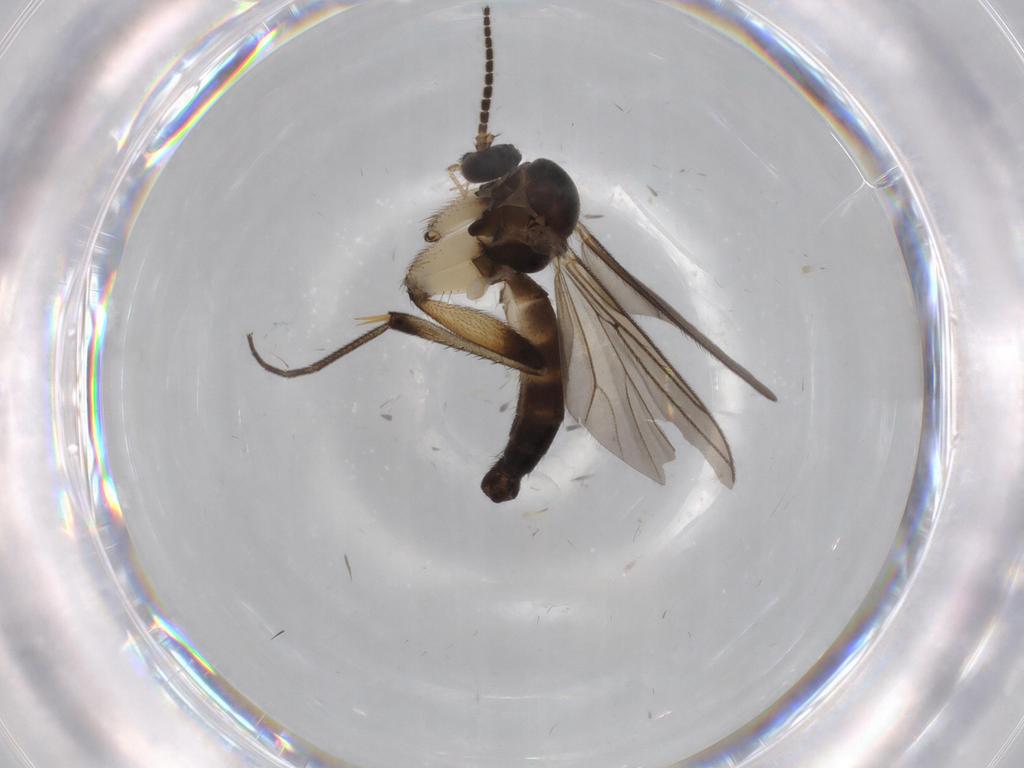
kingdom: Animalia
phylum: Arthropoda
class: Insecta
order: Diptera
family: Mycetophilidae
